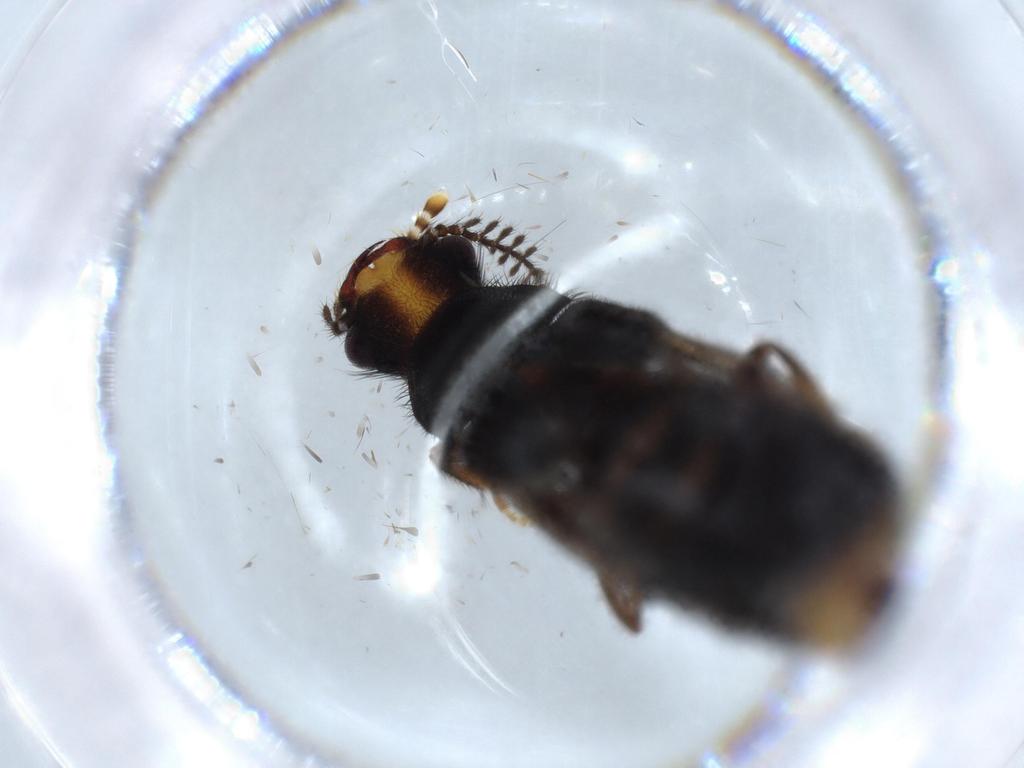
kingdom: Animalia
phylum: Arthropoda
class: Insecta
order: Coleoptera
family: Phengodidae
